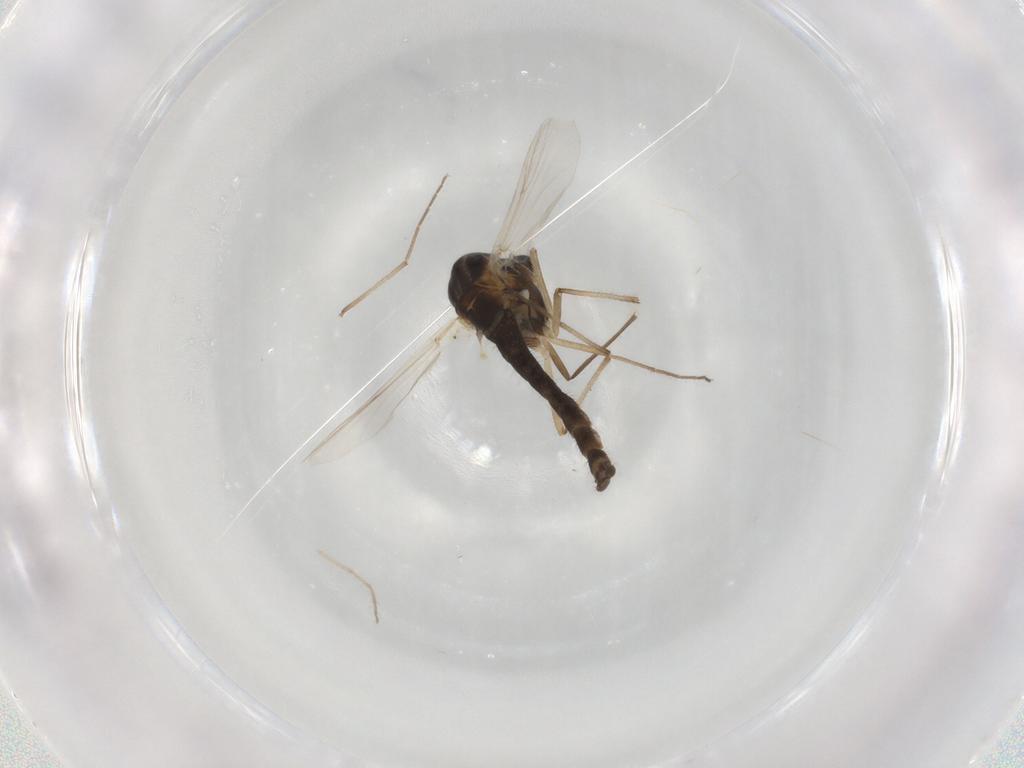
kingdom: Animalia
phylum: Arthropoda
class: Insecta
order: Diptera
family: Chironomidae
